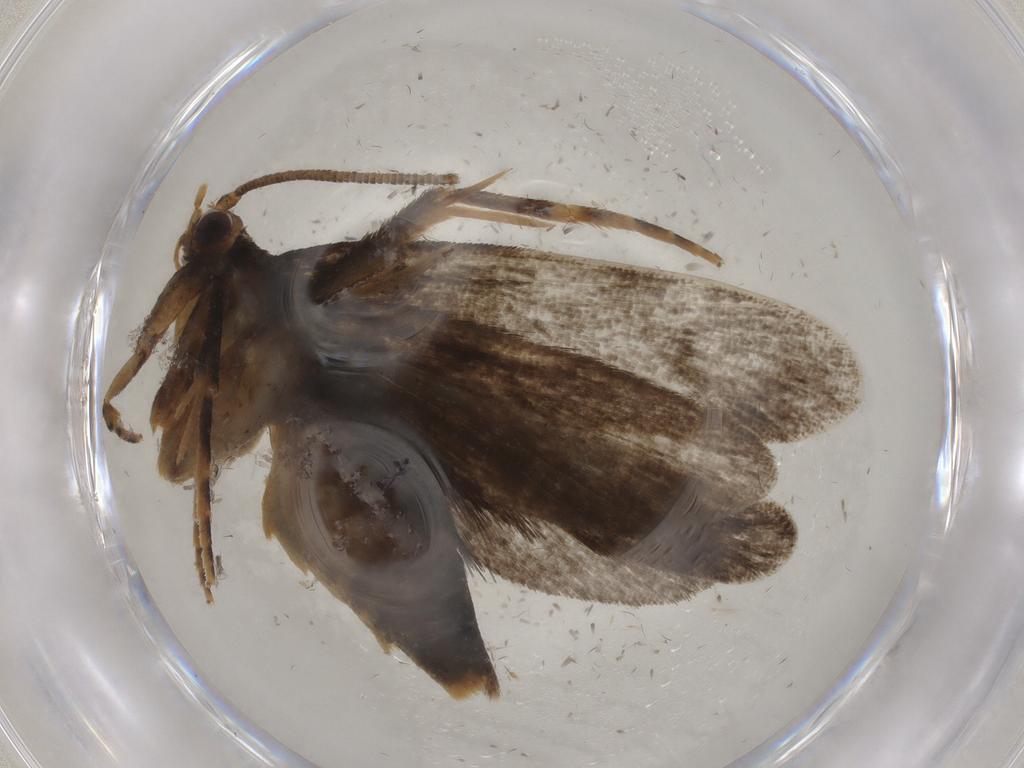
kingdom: Animalia
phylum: Arthropoda
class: Insecta
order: Lepidoptera
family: Tineidae
